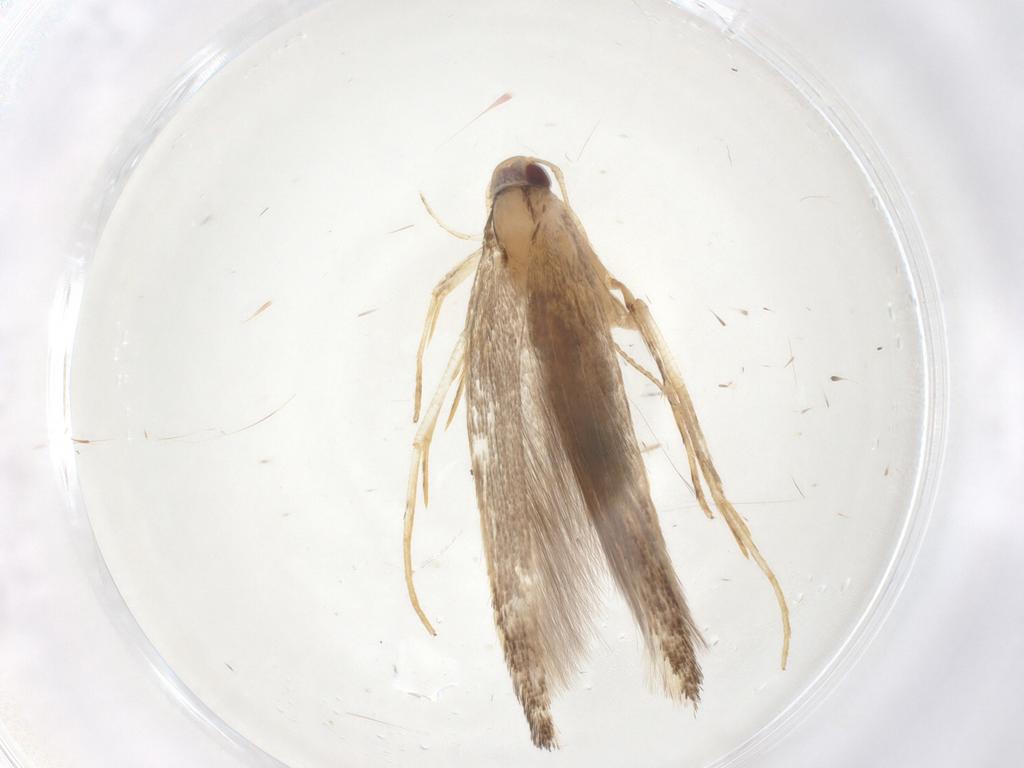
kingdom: Animalia
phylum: Arthropoda
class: Insecta
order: Lepidoptera
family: Cosmopterigidae
